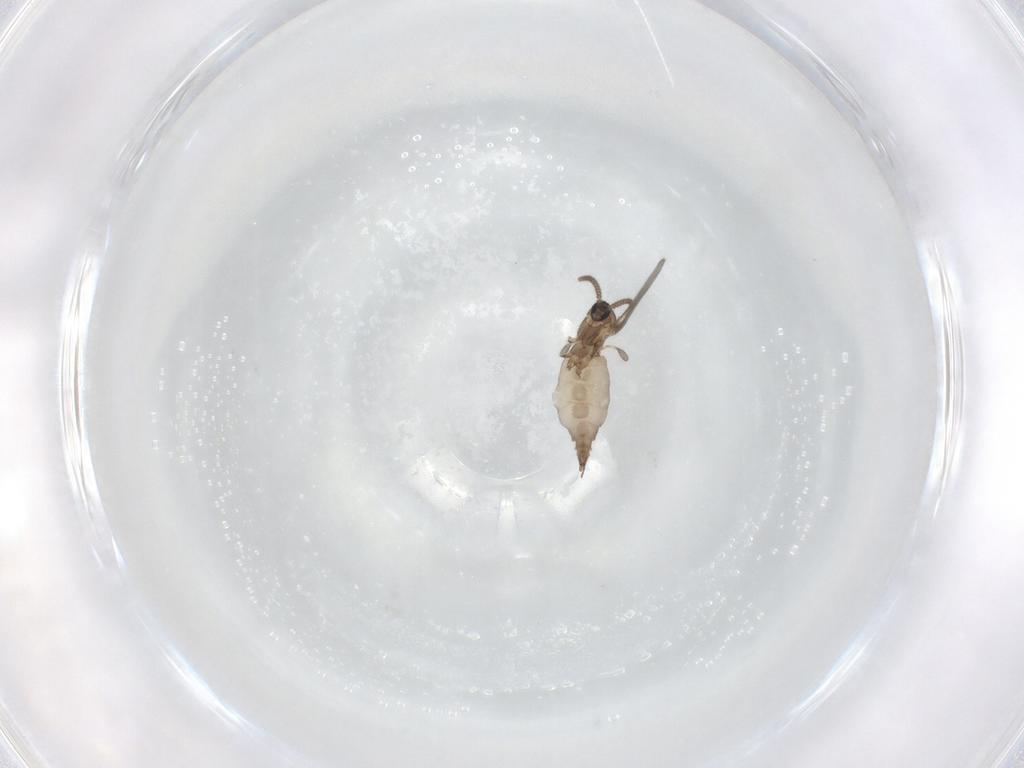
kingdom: Animalia
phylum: Arthropoda
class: Insecta
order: Diptera
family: Sciaridae
